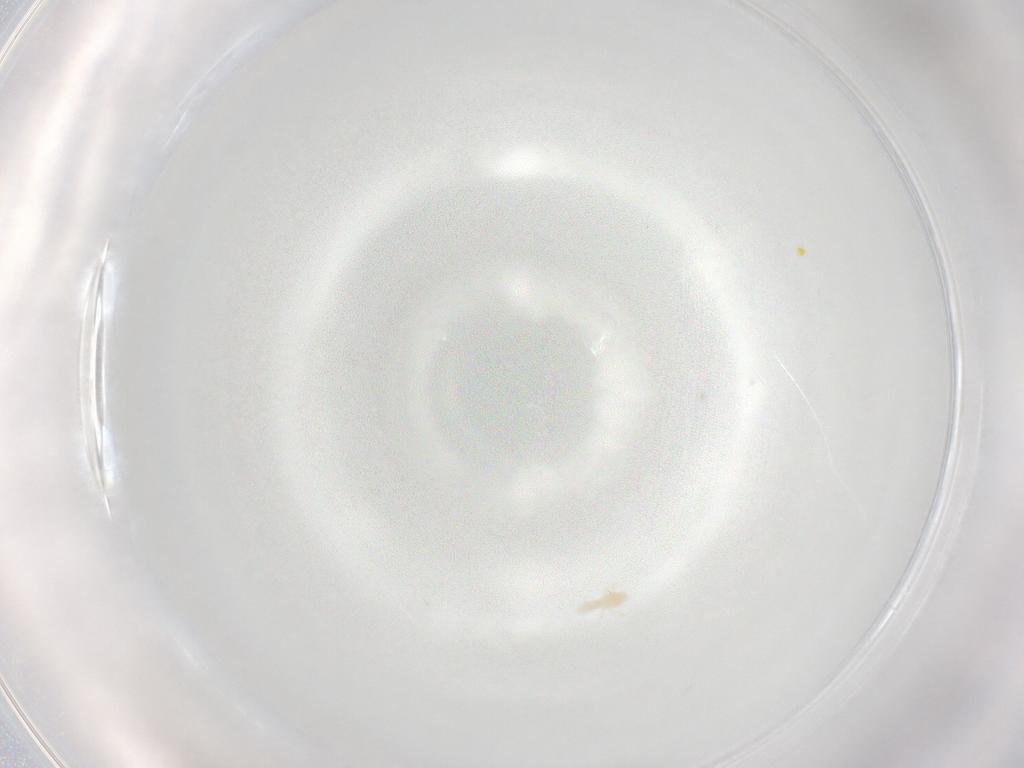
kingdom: Animalia
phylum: Arthropoda
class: Arachnida
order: Trombidiformes
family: Eupodidae
